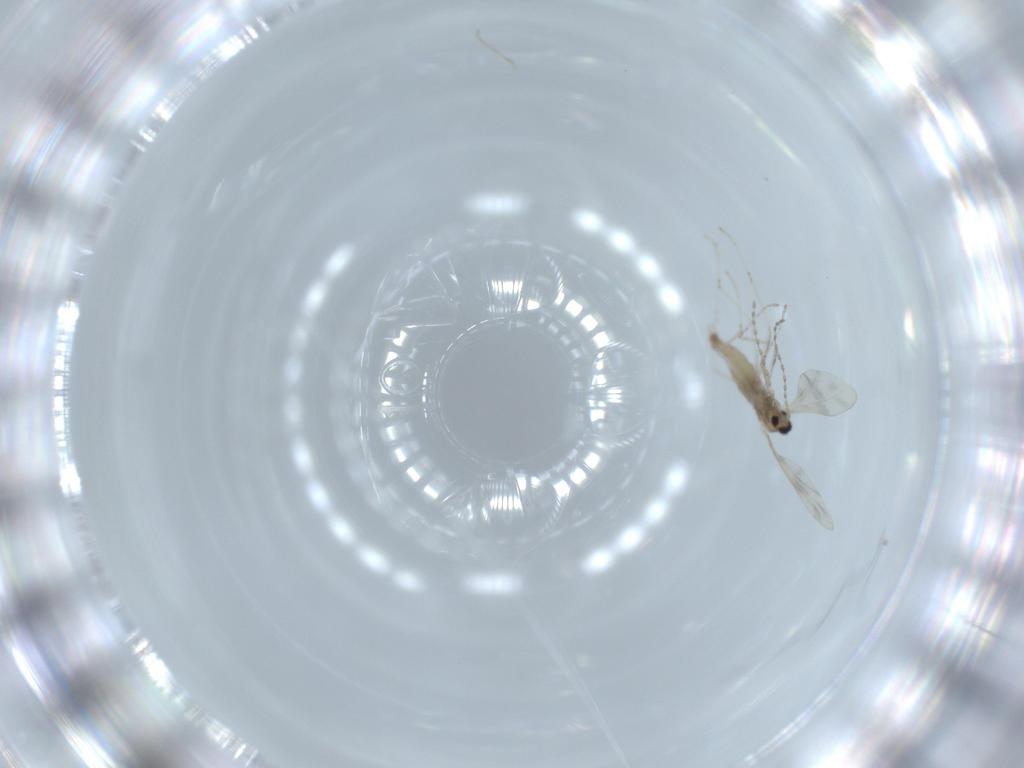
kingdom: Animalia
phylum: Arthropoda
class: Insecta
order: Diptera
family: Cecidomyiidae
